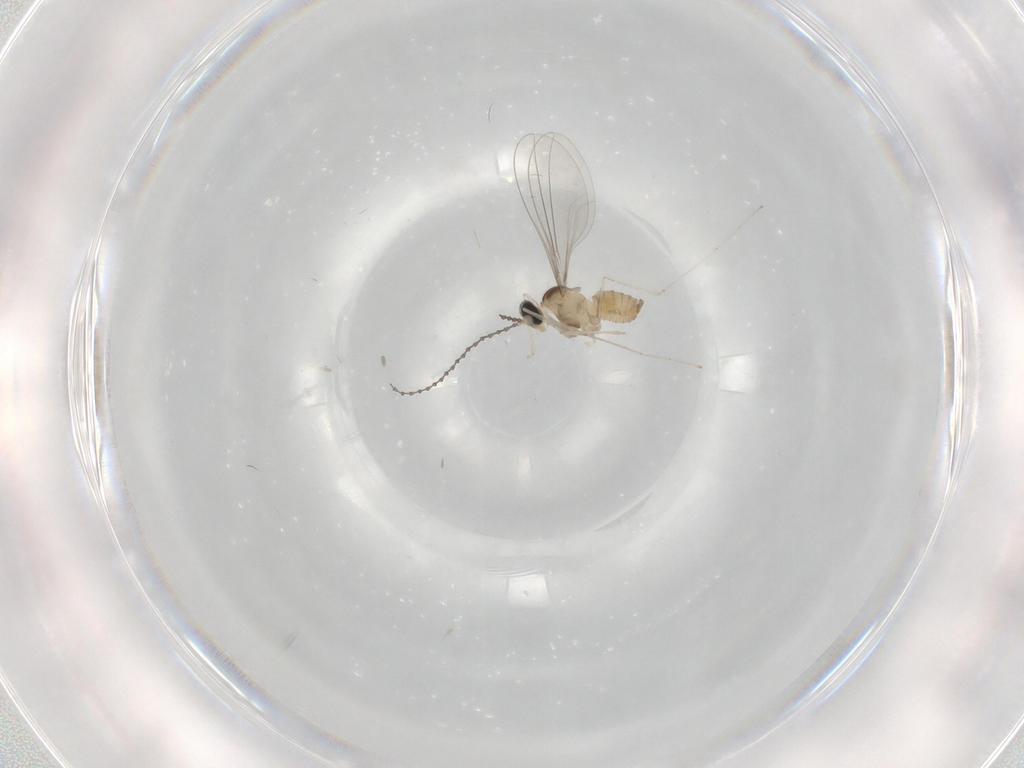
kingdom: Animalia
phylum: Arthropoda
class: Insecta
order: Diptera
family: Cecidomyiidae
